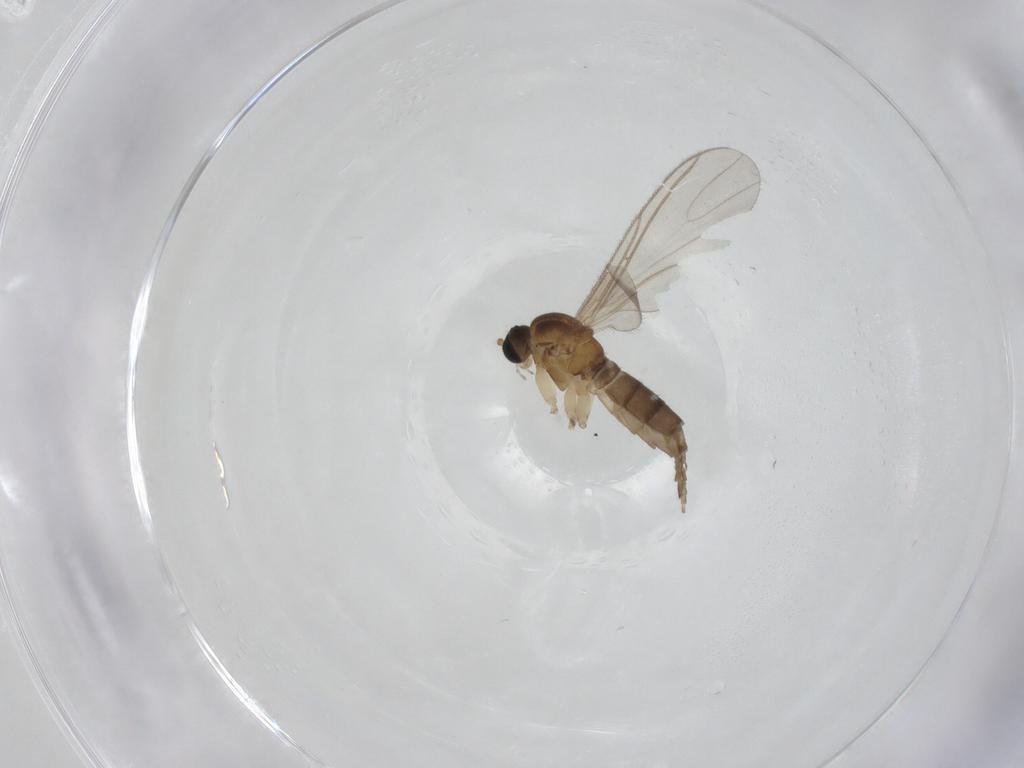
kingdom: Animalia
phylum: Arthropoda
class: Insecta
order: Diptera
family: Sciaridae
